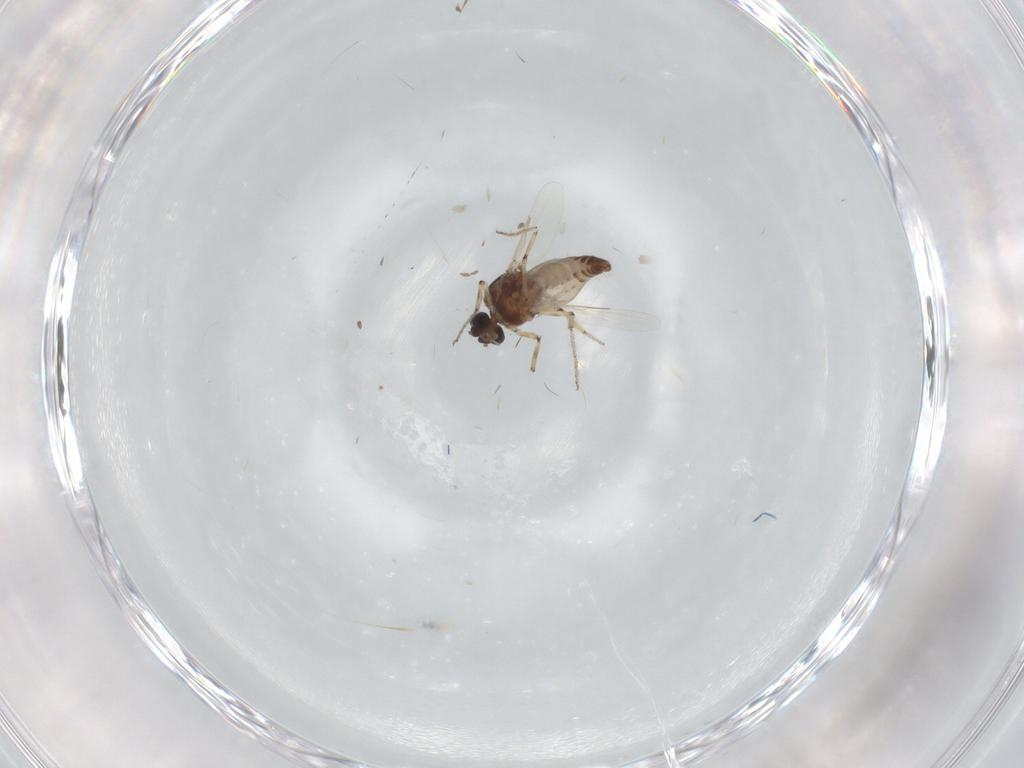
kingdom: Animalia
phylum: Arthropoda
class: Insecta
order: Diptera
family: Ceratopogonidae
